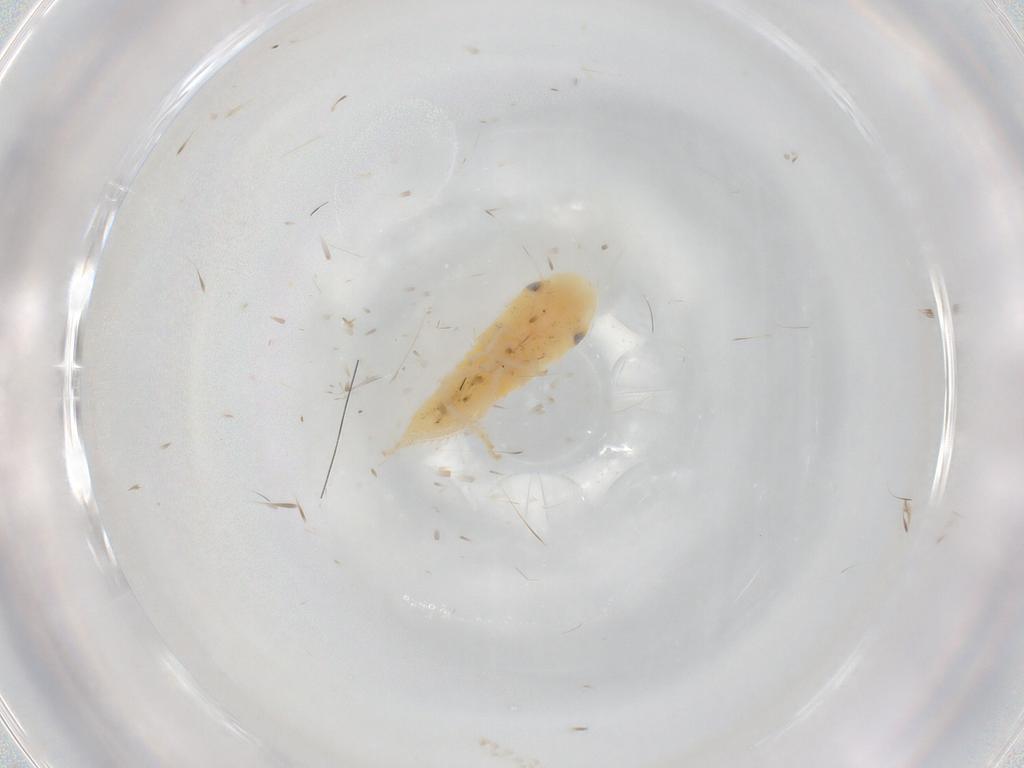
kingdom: Animalia
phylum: Arthropoda
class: Insecta
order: Hemiptera
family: Cicadellidae
